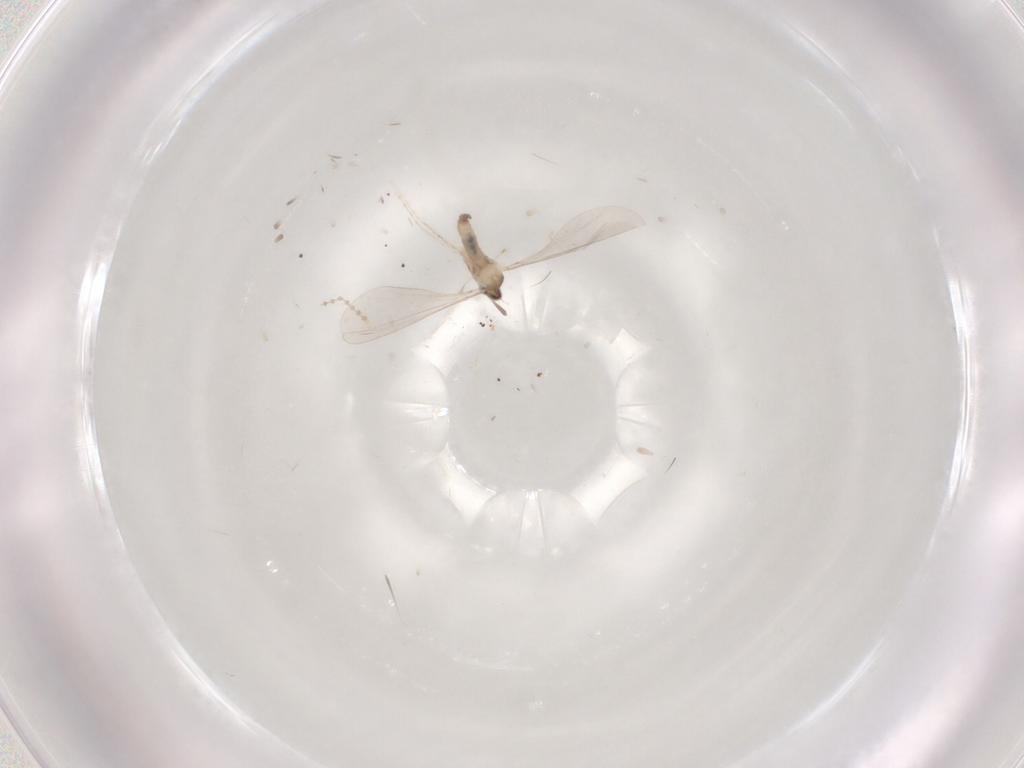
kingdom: Animalia
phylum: Arthropoda
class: Insecta
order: Diptera
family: Cecidomyiidae
